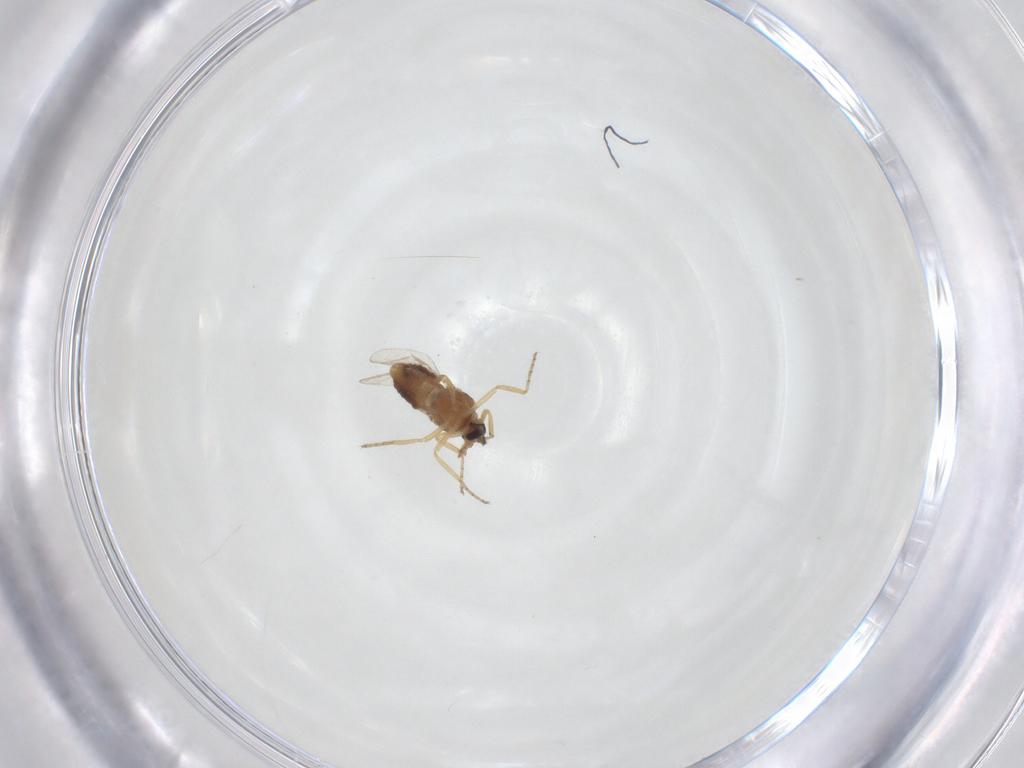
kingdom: Animalia
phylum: Arthropoda
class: Insecta
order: Diptera
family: Ceratopogonidae
